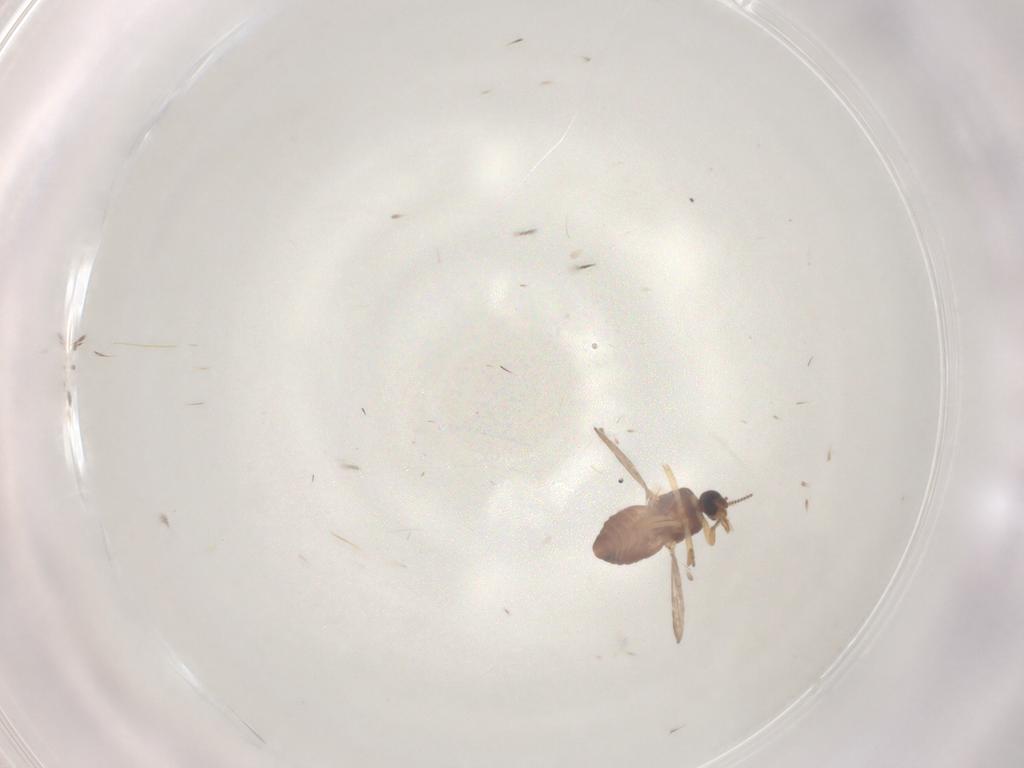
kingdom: Animalia
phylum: Arthropoda
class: Insecta
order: Diptera
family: Ceratopogonidae
